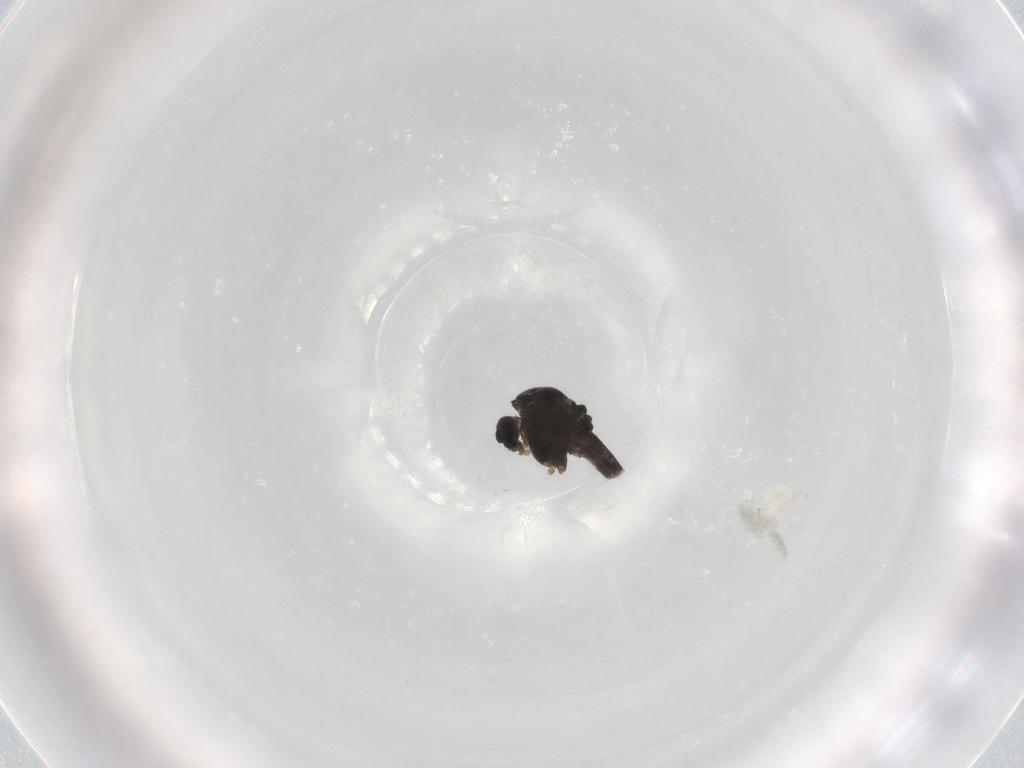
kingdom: Animalia
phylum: Arthropoda
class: Insecta
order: Diptera
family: Chironomidae
